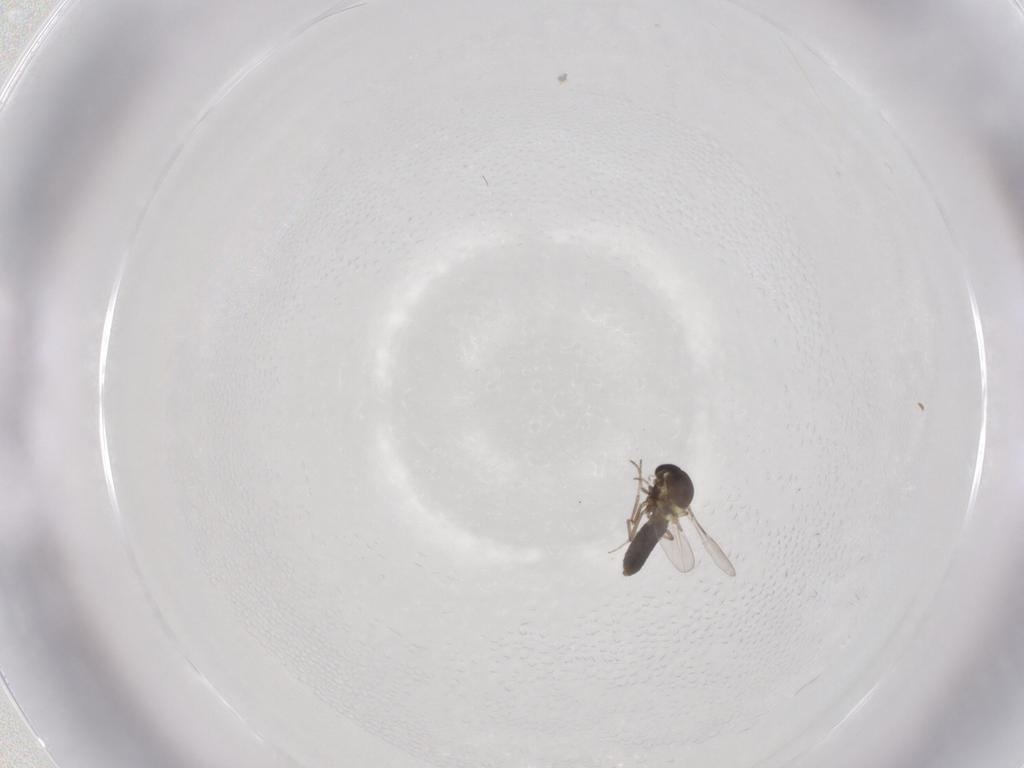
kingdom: Animalia
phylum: Arthropoda
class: Insecta
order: Diptera
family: Ceratopogonidae
